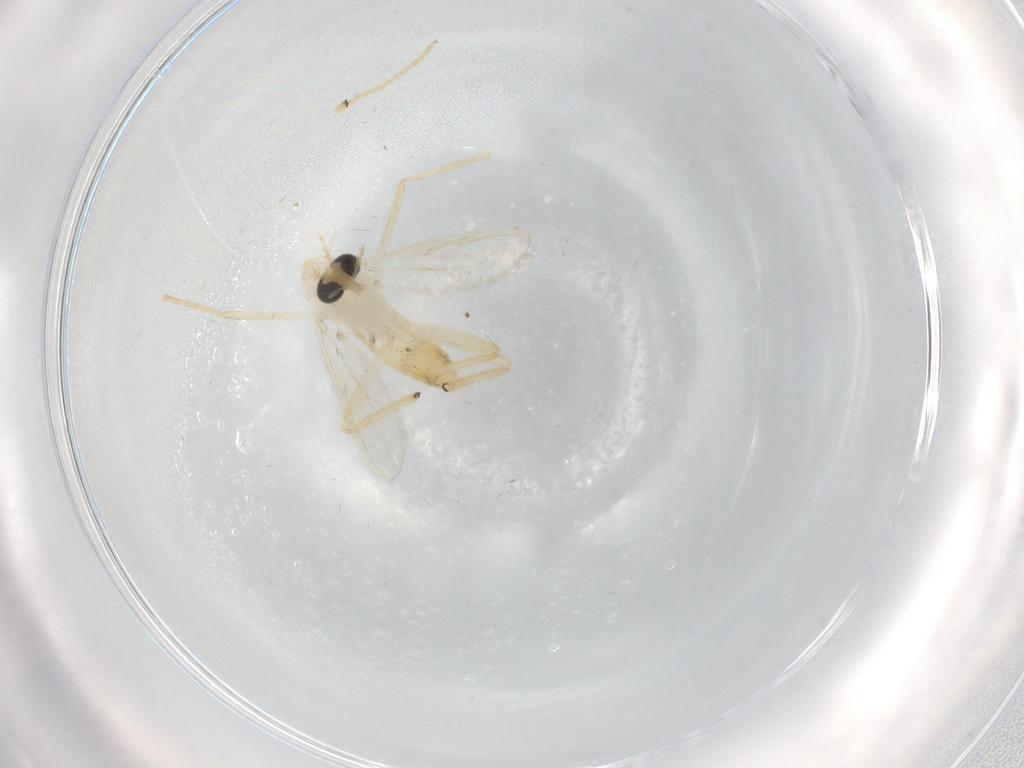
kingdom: Animalia
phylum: Arthropoda
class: Insecta
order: Diptera
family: Chironomidae
